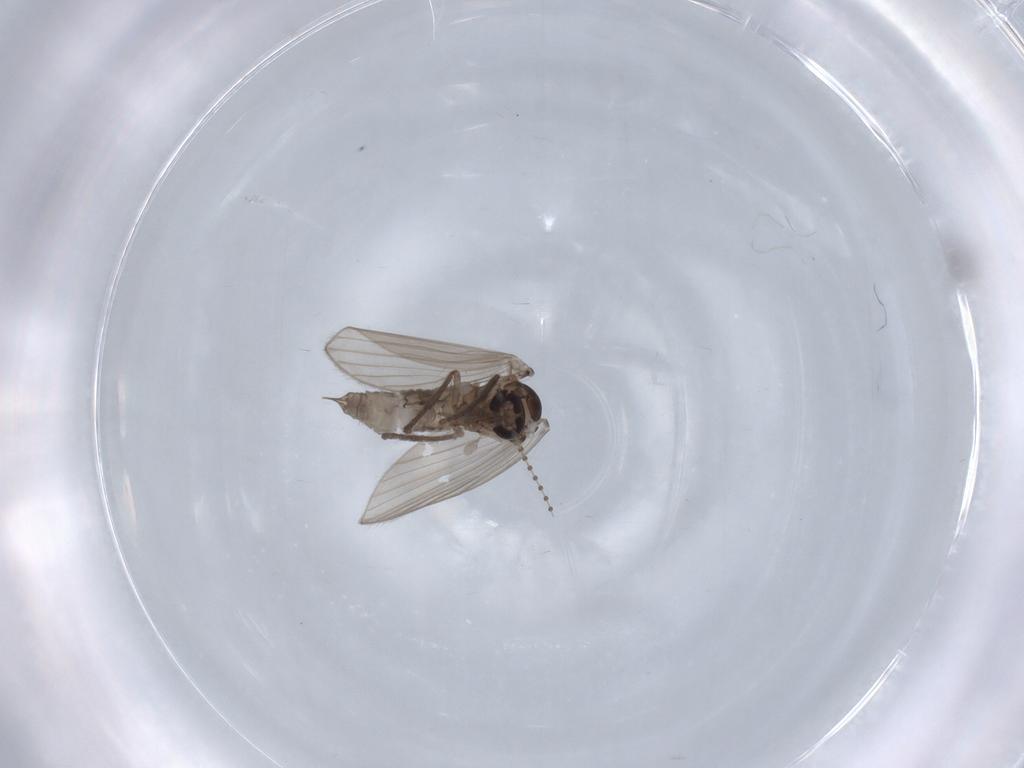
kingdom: Animalia
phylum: Arthropoda
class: Insecta
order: Diptera
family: Psychodidae
